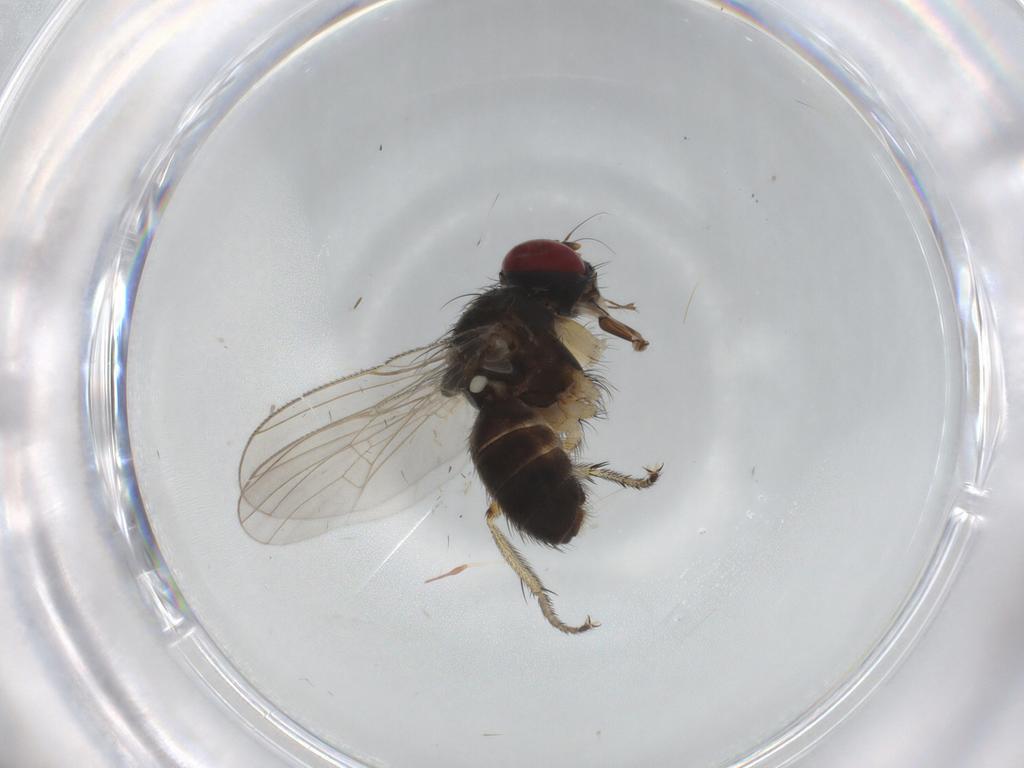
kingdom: Animalia
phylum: Arthropoda
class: Insecta
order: Diptera
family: Muscidae
